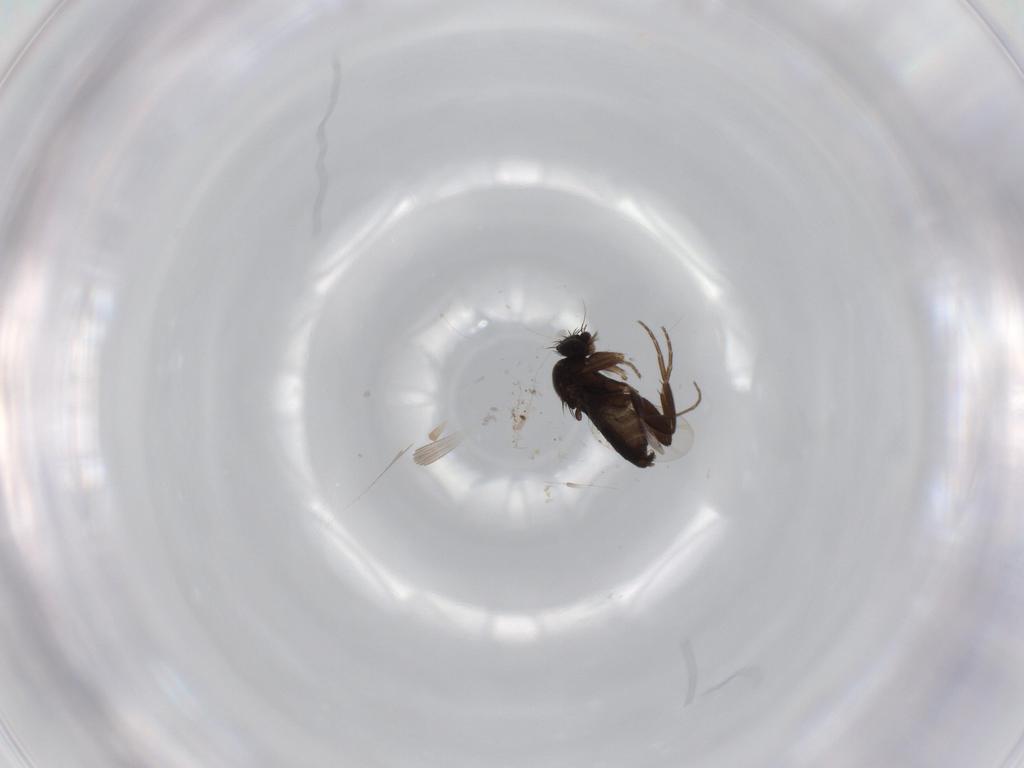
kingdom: Animalia
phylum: Arthropoda
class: Insecta
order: Diptera
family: Phoridae
